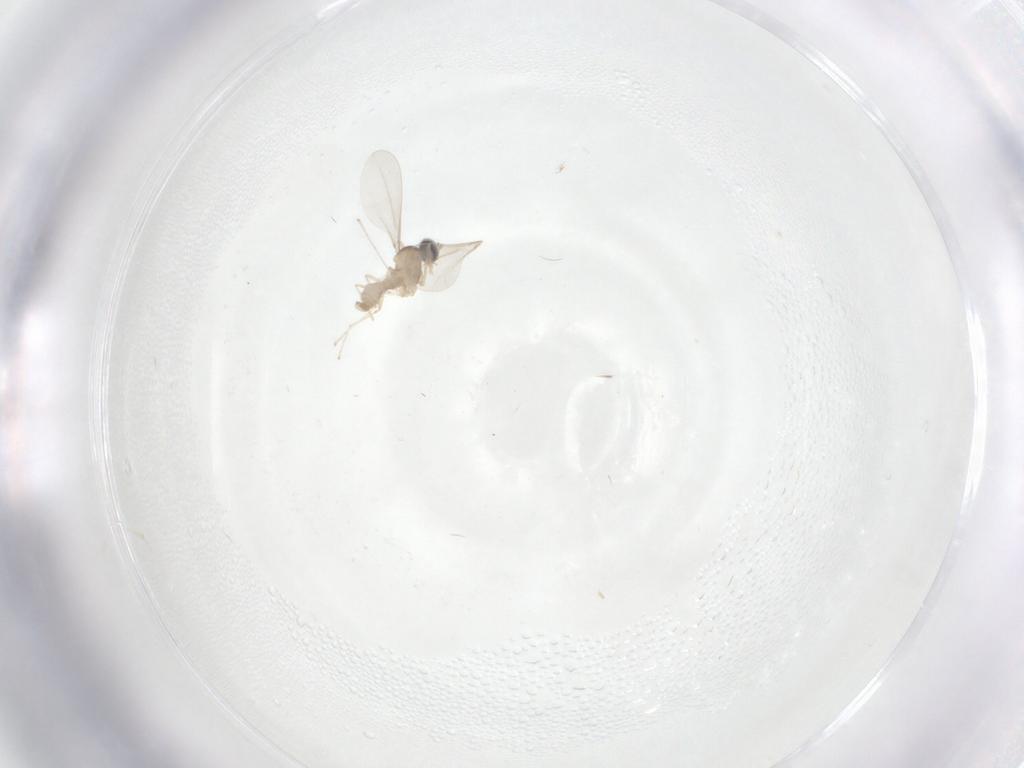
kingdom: Animalia
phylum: Arthropoda
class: Insecta
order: Diptera
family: Cecidomyiidae
